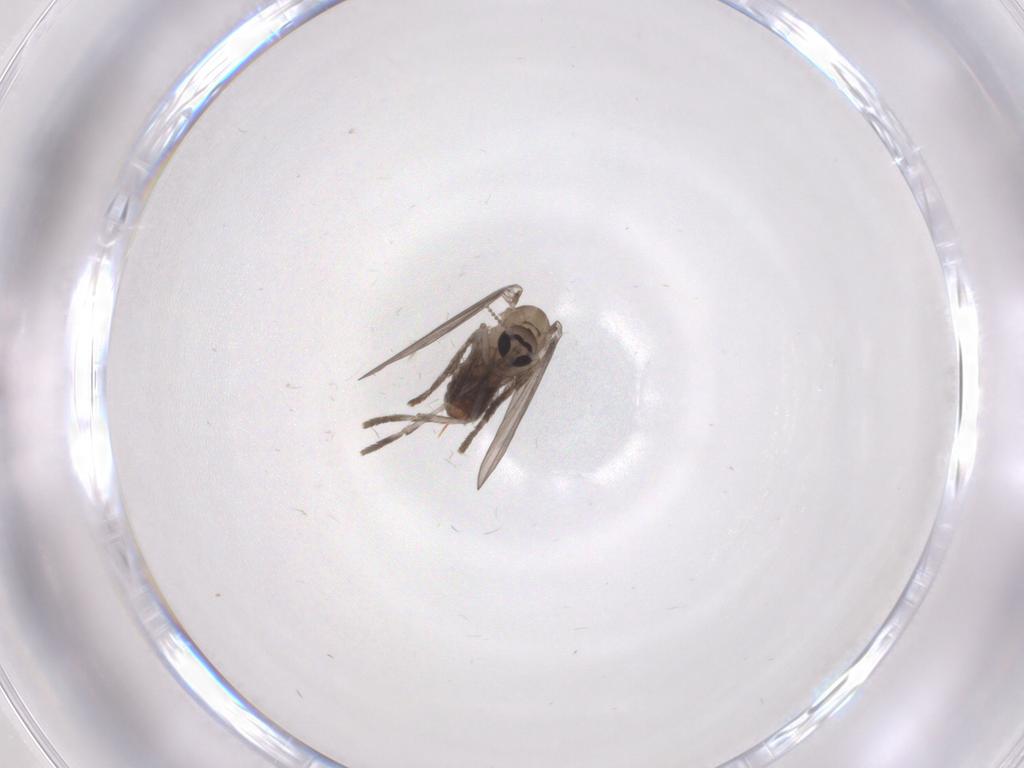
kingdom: Animalia
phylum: Arthropoda
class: Insecta
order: Diptera
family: Psychodidae
